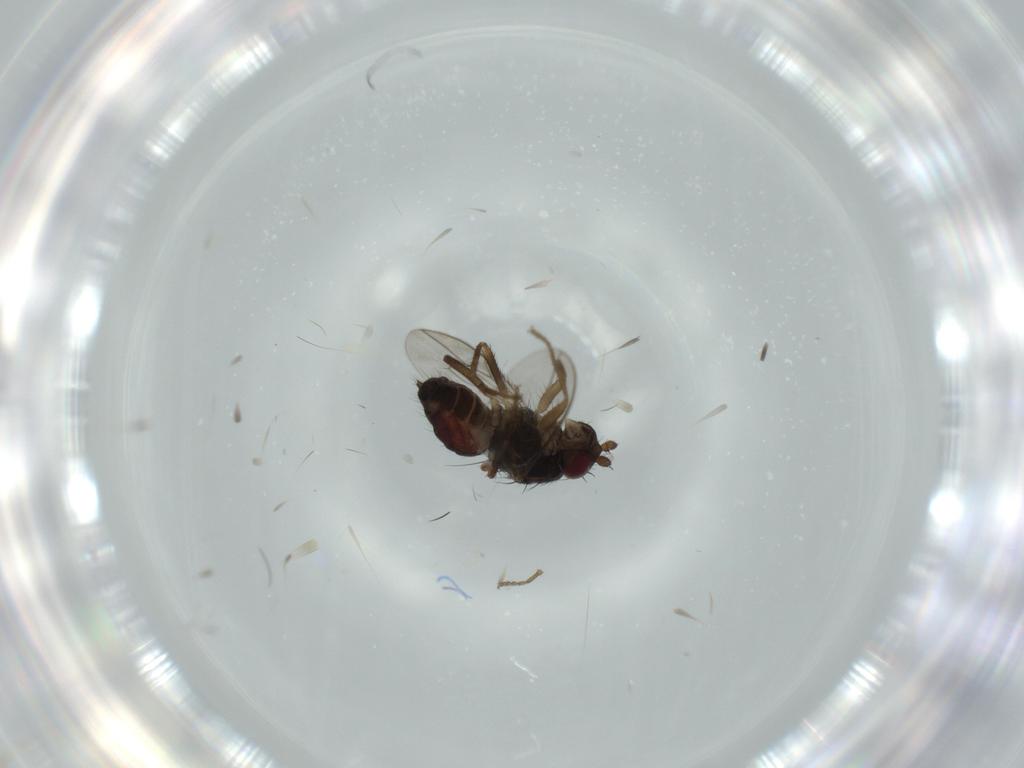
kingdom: Animalia
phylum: Arthropoda
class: Insecta
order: Diptera
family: Sphaeroceridae
